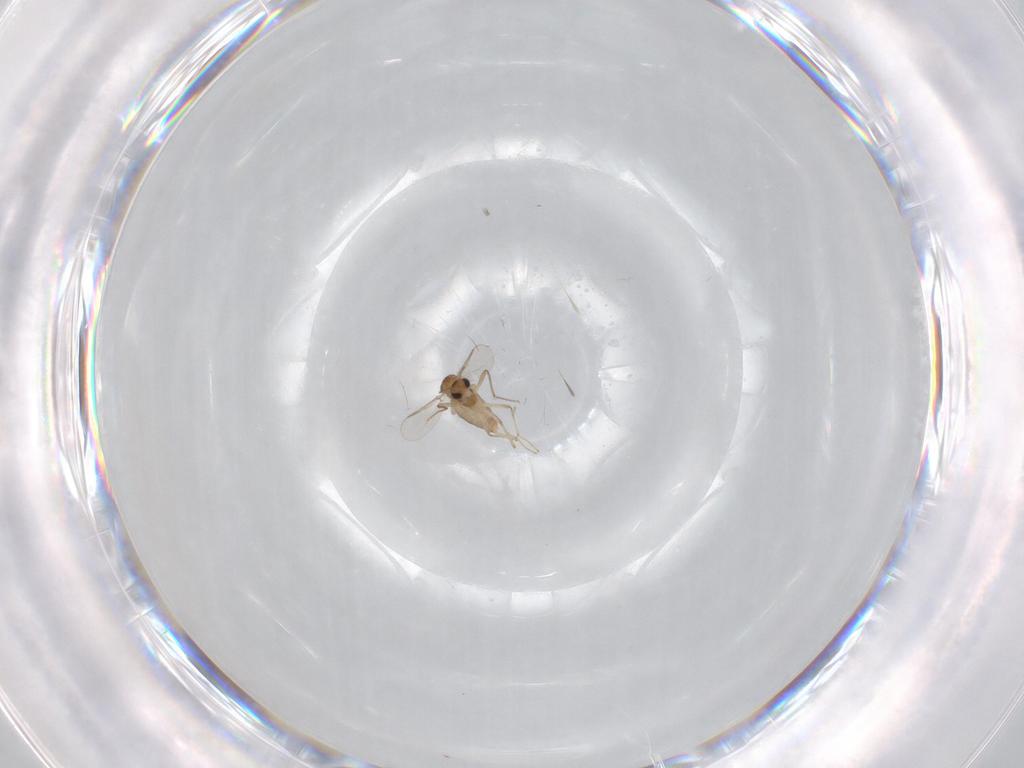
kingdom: Animalia
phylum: Arthropoda
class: Insecta
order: Diptera
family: Chironomidae
